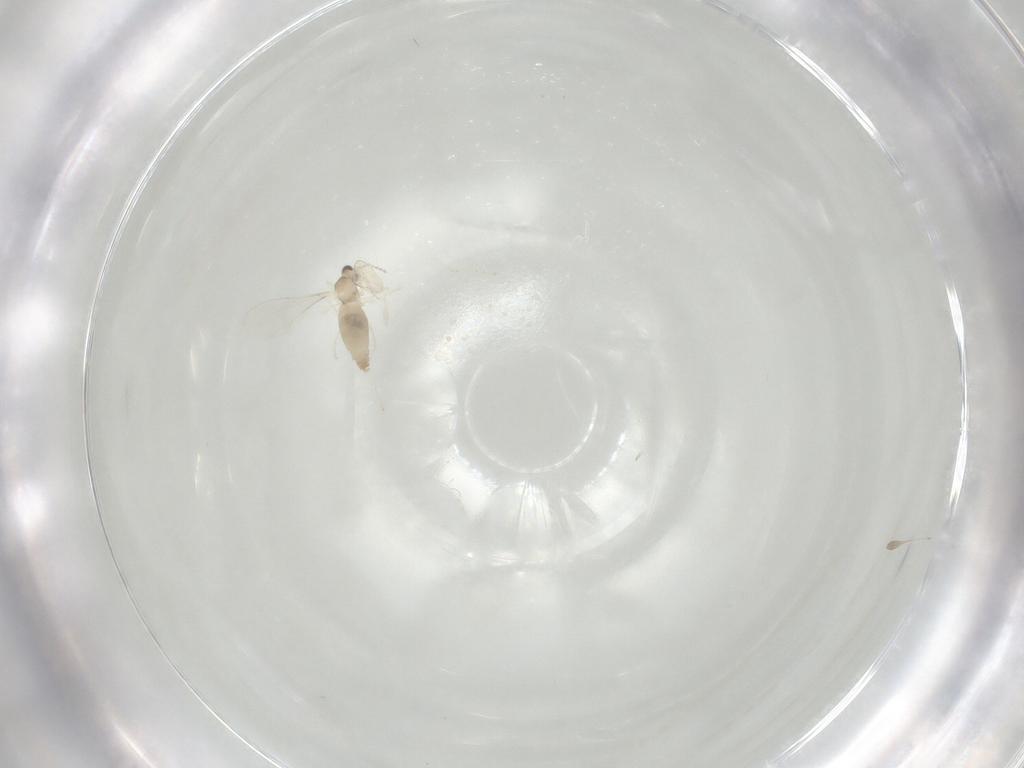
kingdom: Animalia
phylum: Arthropoda
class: Insecta
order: Diptera
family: Cecidomyiidae
